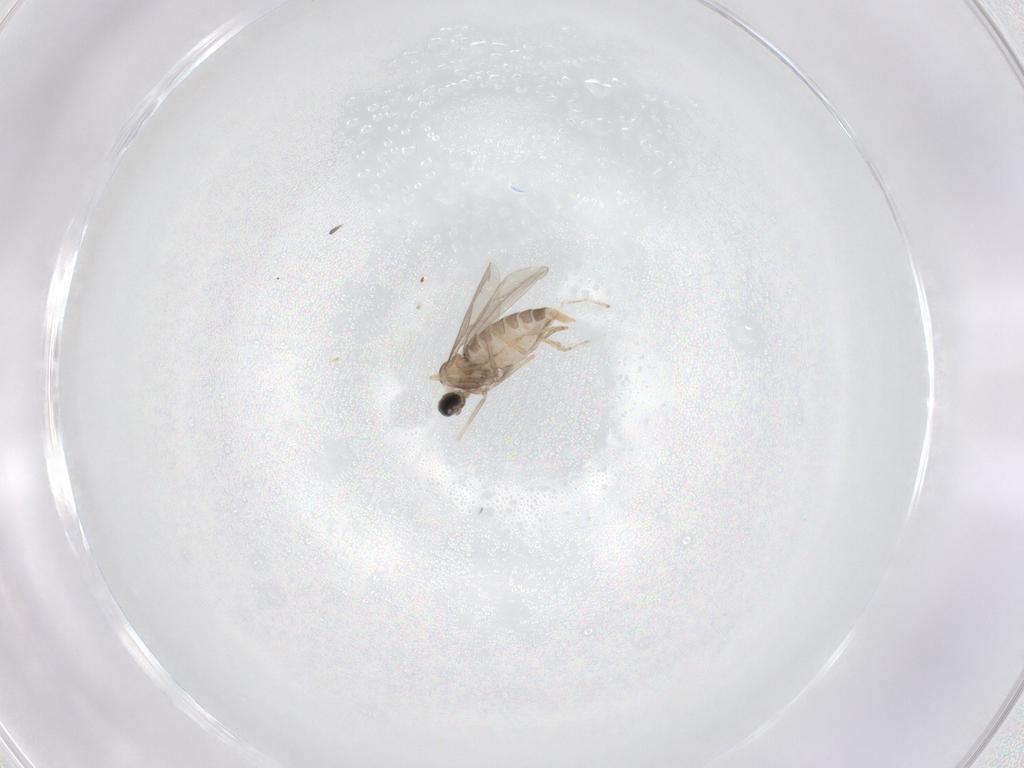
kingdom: Animalia
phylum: Arthropoda
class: Insecta
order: Diptera
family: Cecidomyiidae
